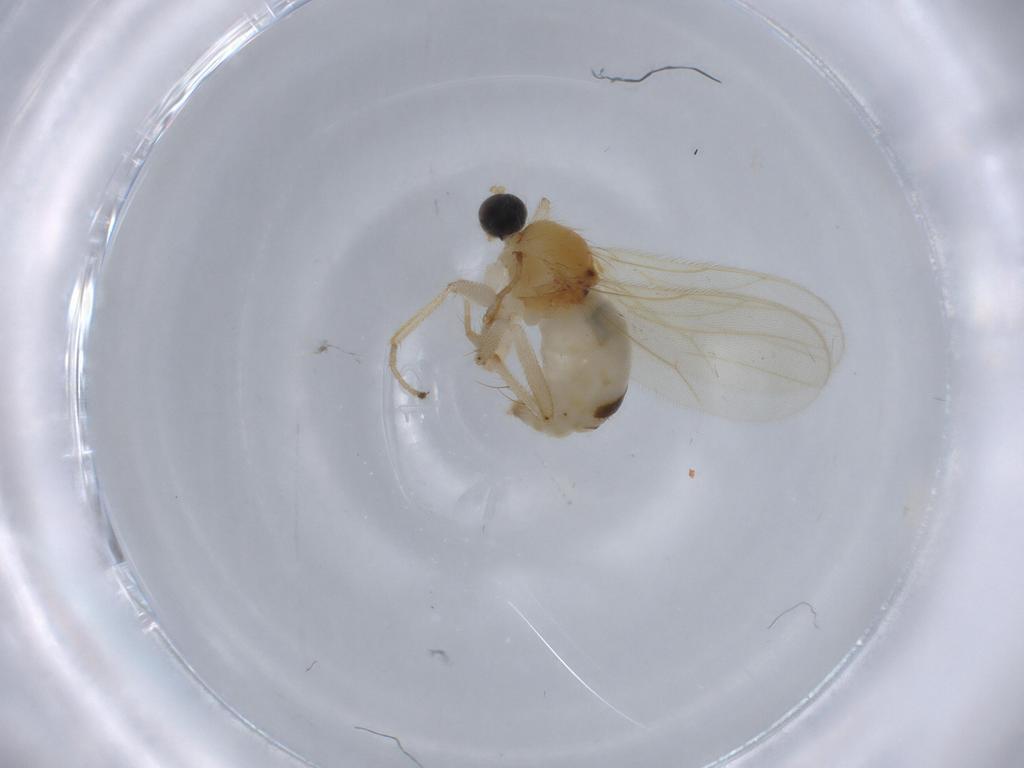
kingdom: Animalia
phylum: Arthropoda
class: Insecta
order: Diptera
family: Hybotidae
